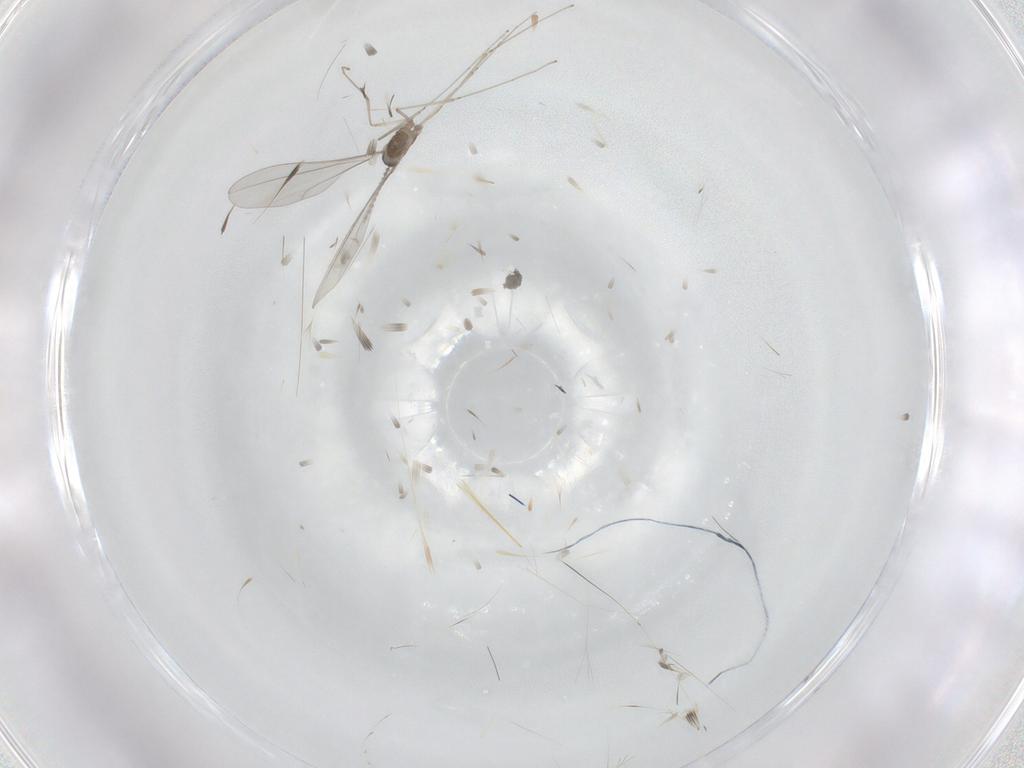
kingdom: Animalia
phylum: Arthropoda
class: Insecta
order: Diptera
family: Cecidomyiidae
